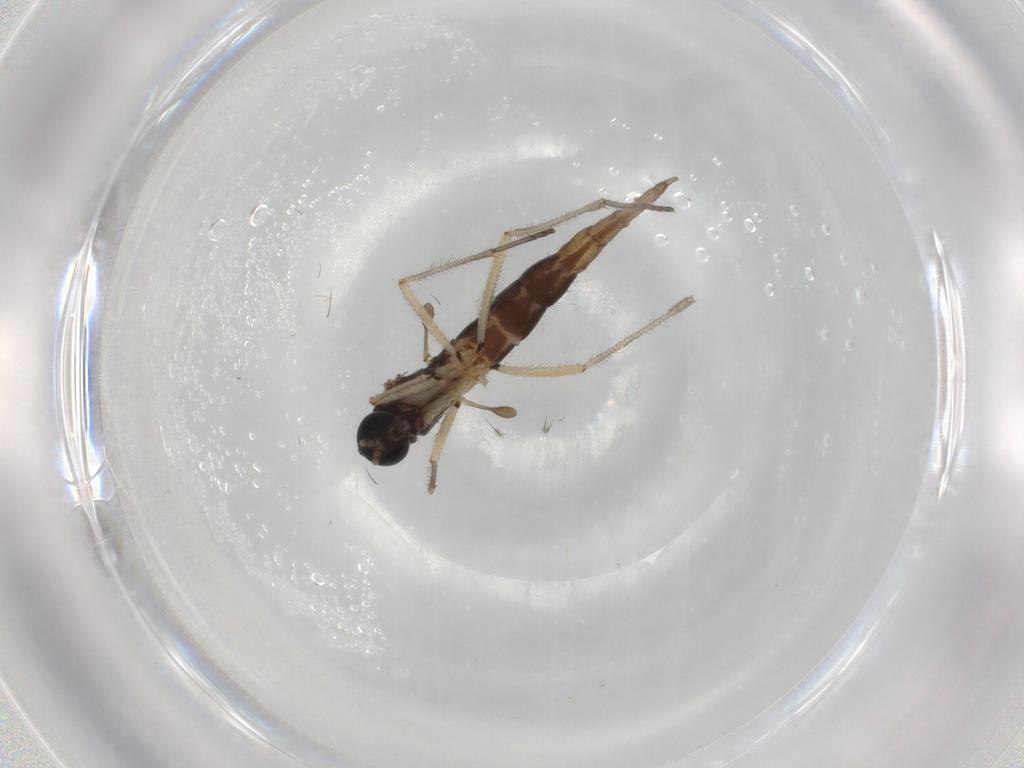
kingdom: Animalia
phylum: Arthropoda
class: Insecta
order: Diptera
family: Sciaridae
